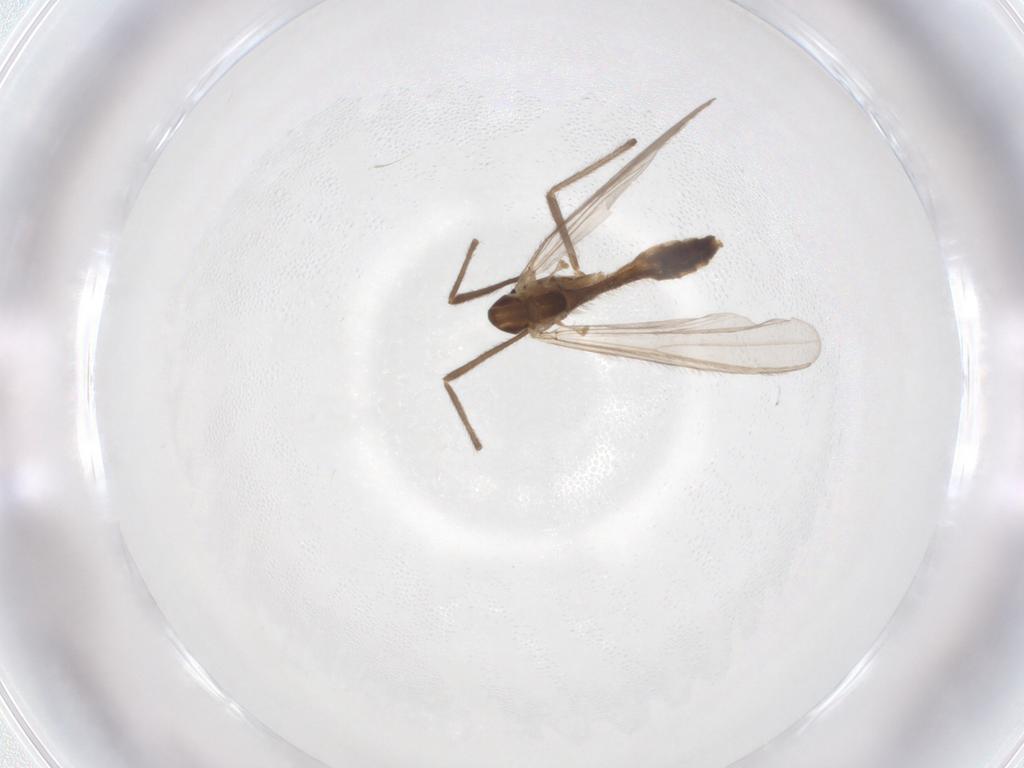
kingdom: Animalia
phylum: Arthropoda
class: Insecta
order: Diptera
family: Chironomidae
